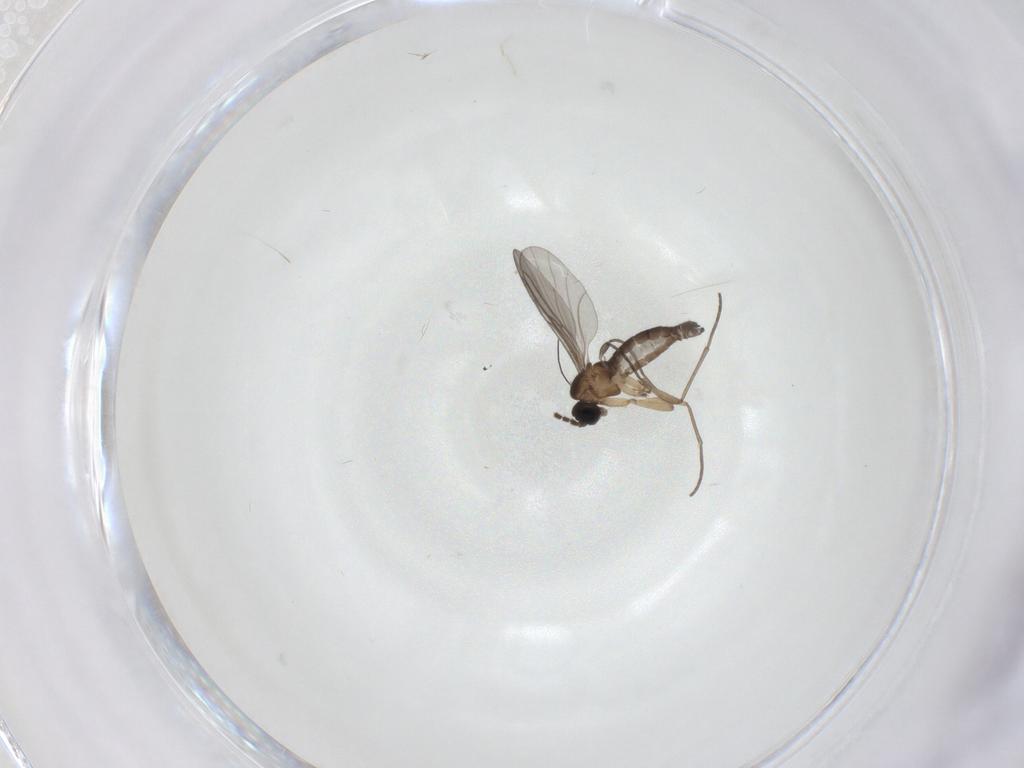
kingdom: Animalia
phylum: Arthropoda
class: Insecta
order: Diptera
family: Sciaridae
